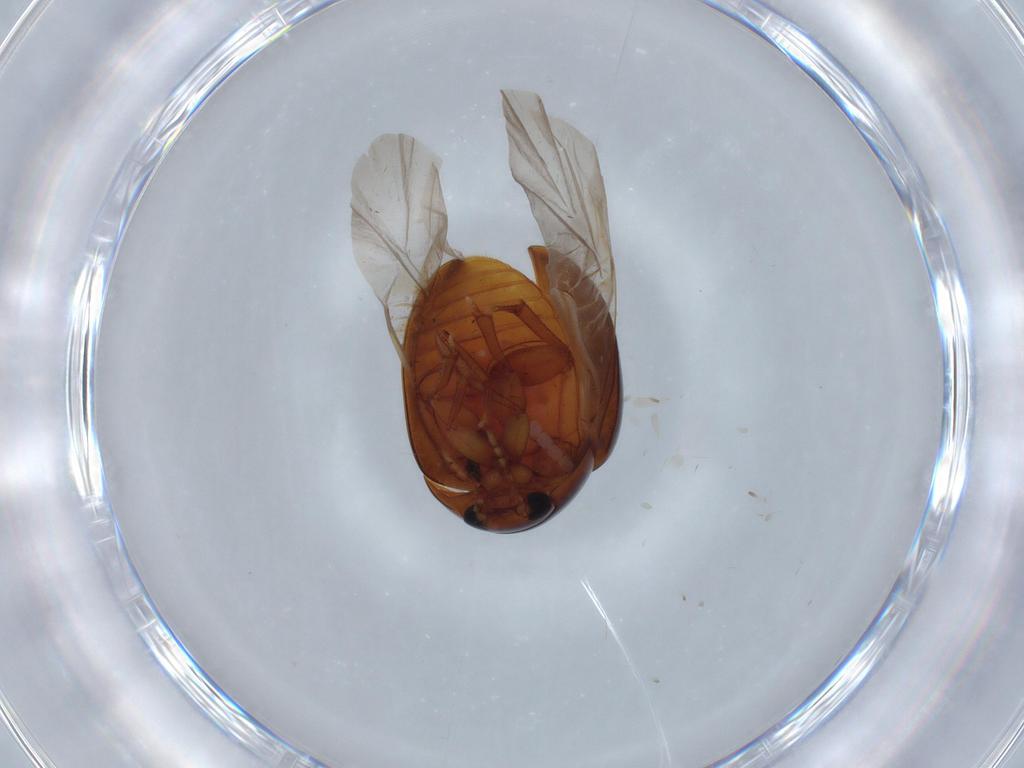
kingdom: Animalia
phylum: Arthropoda
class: Insecta
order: Coleoptera
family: Phalacridae
